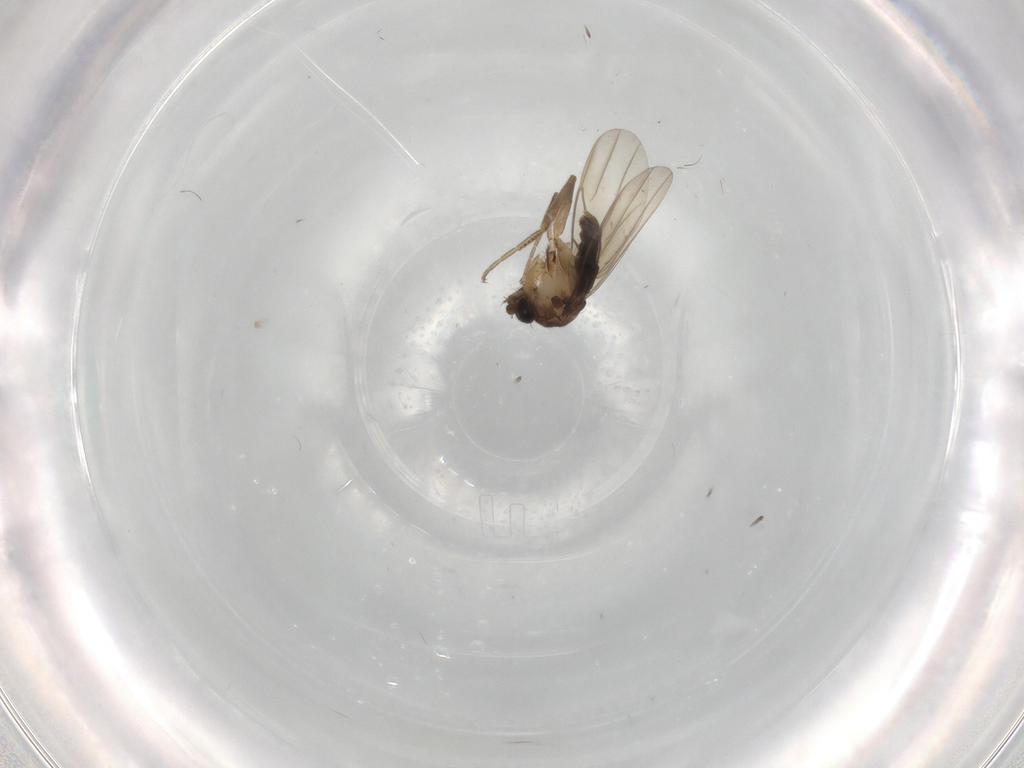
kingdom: Animalia
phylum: Arthropoda
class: Insecta
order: Diptera
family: Phoridae
